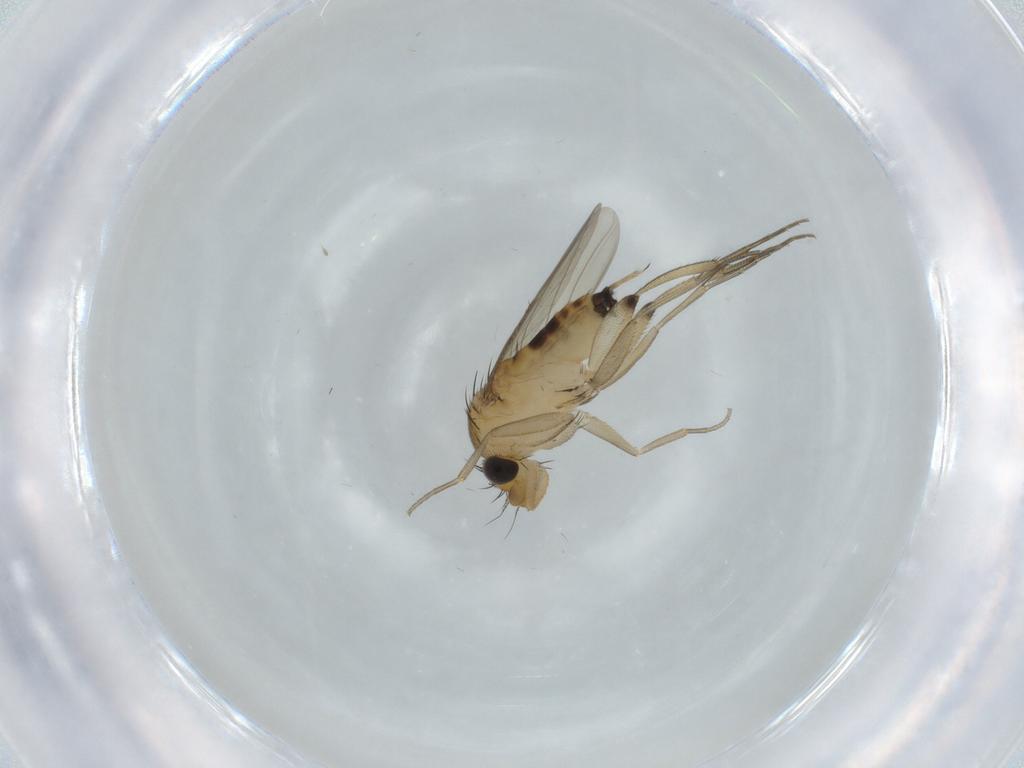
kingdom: Animalia
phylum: Arthropoda
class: Insecta
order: Diptera
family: Phoridae
